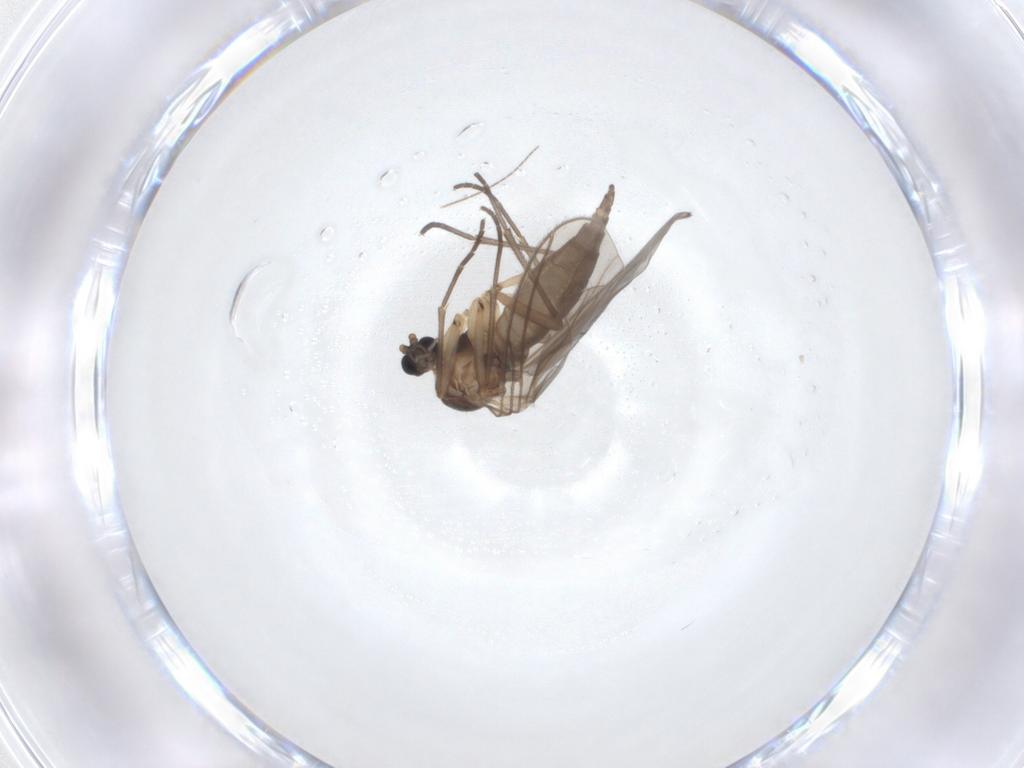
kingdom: Animalia
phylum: Arthropoda
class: Insecta
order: Diptera
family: Sciaridae
